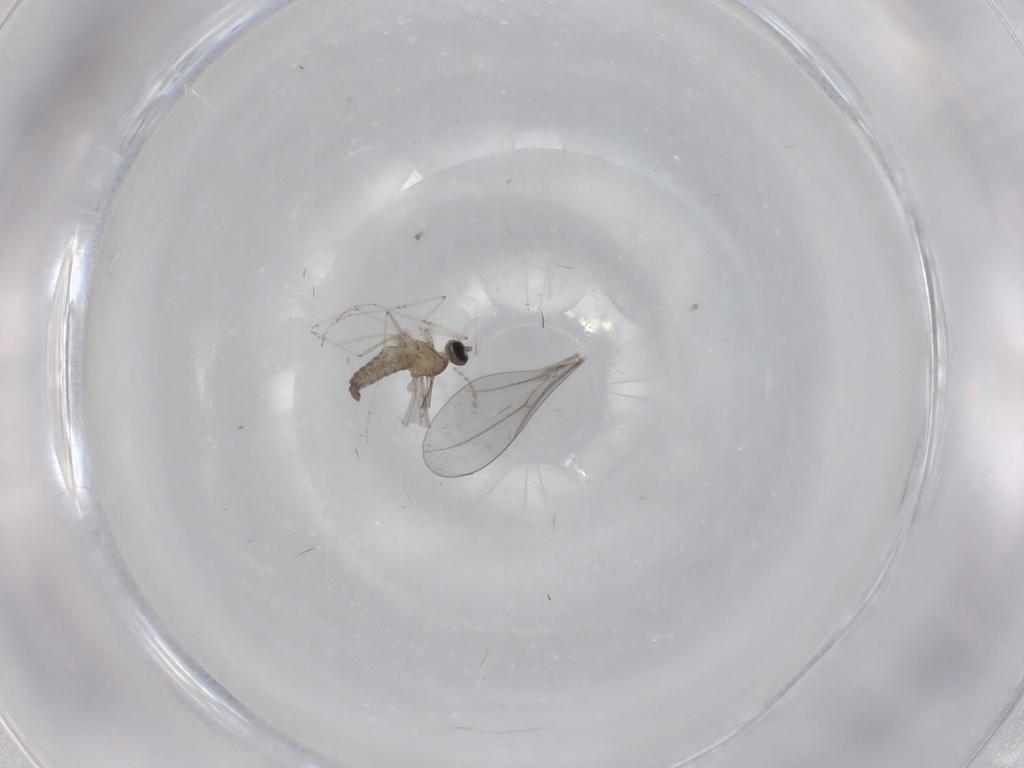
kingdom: Animalia
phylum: Arthropoda
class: Insecta
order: Diptera
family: Cecidomyiidae
